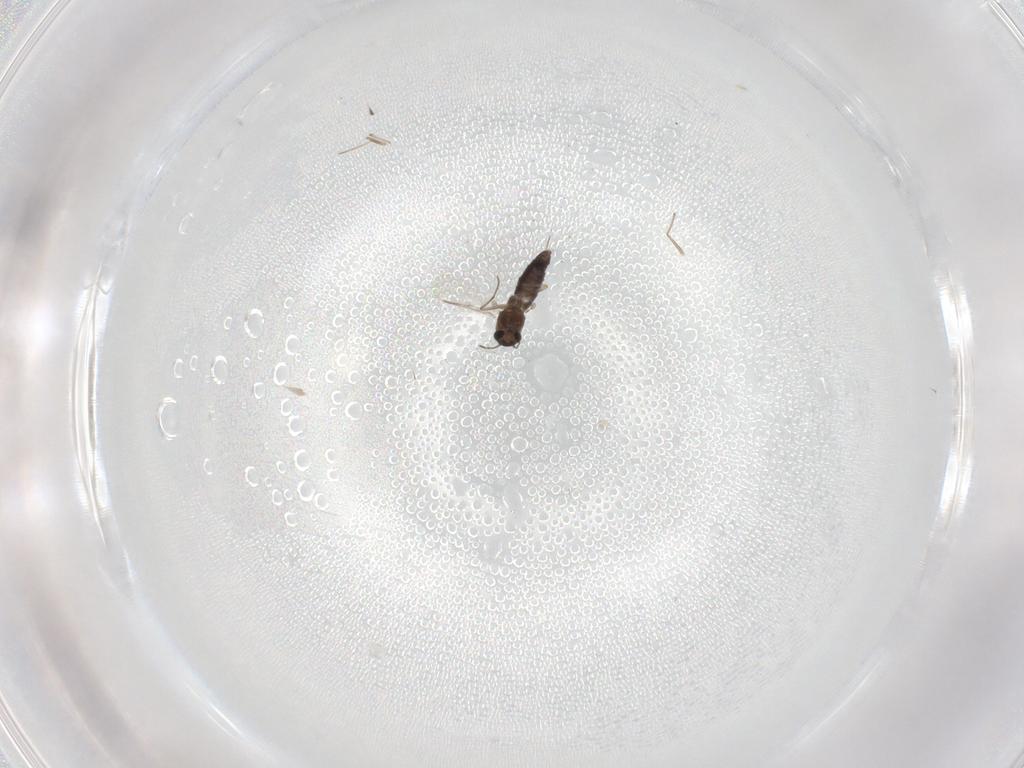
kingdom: Animalia
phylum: Arthropoda
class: Insecta
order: Diptera
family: Chironomidae
